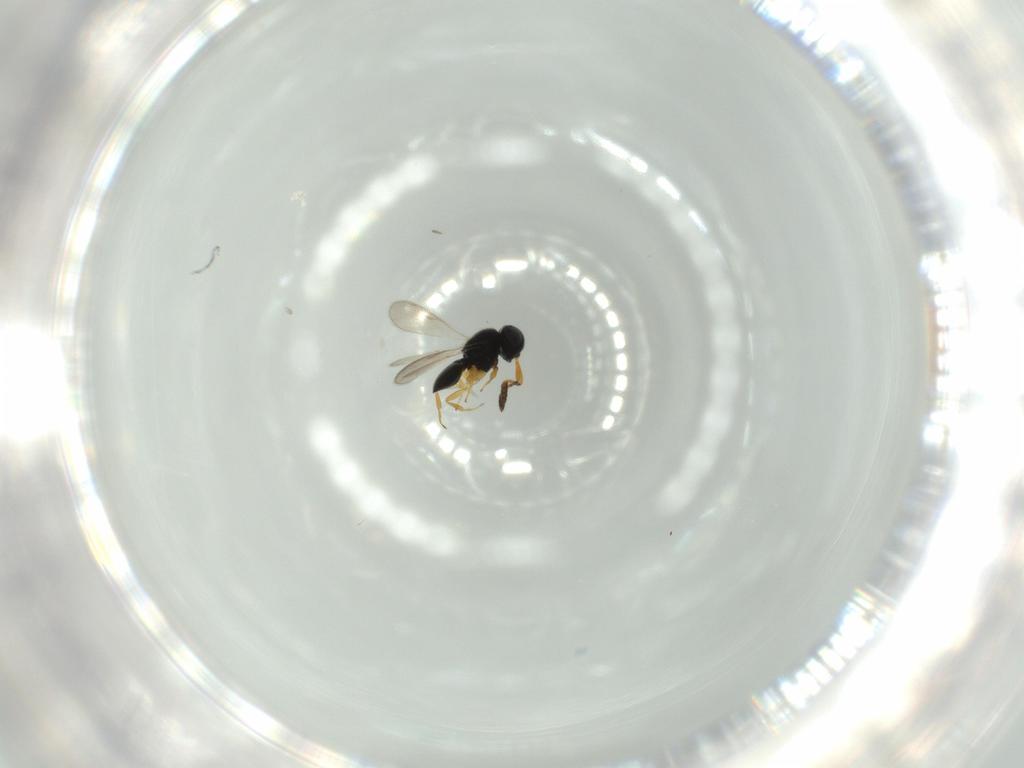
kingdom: Animalia
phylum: Arthropoda
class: Insecta
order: Hymenoptera
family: Scelionidae
